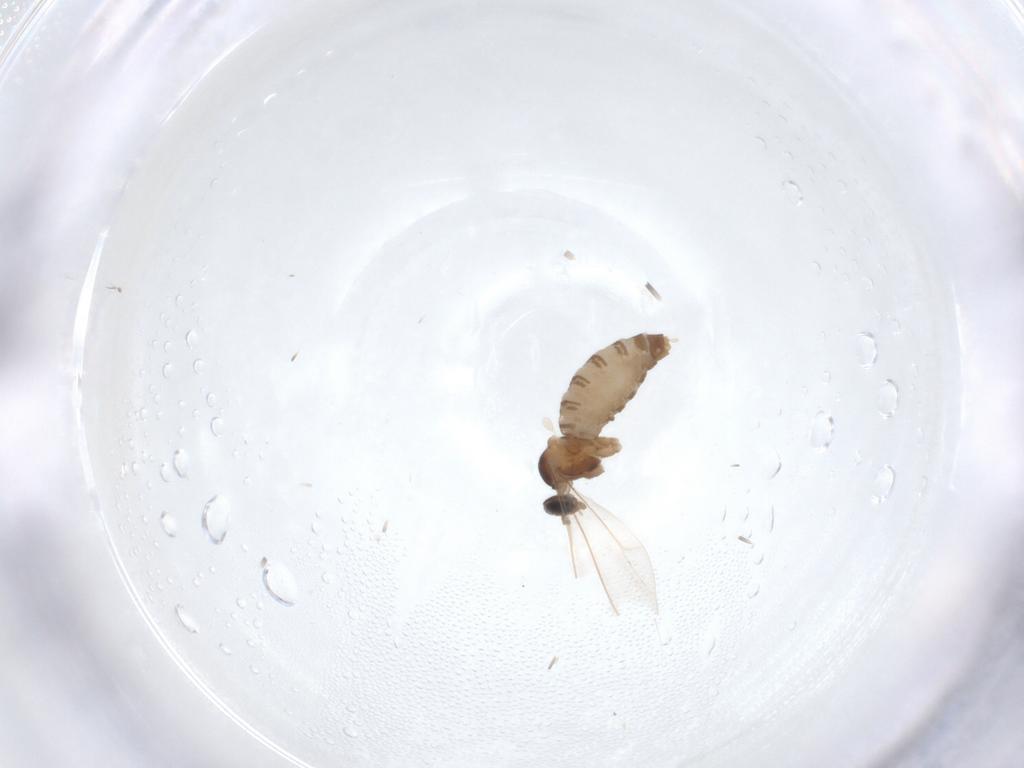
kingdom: Animalia
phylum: Arthropoda
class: Insecta
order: Diptera
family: Cecidomyiidae
